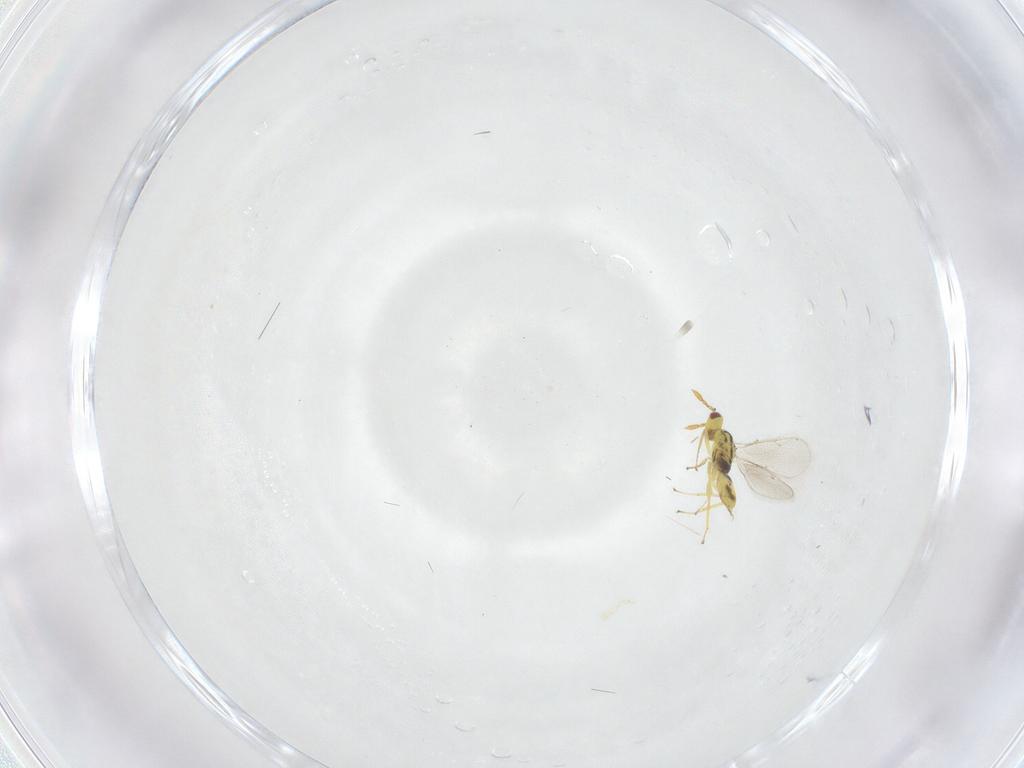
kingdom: Animalia
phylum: Arthropoda
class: Insecta
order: Hymenoptera
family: Eulophidae
